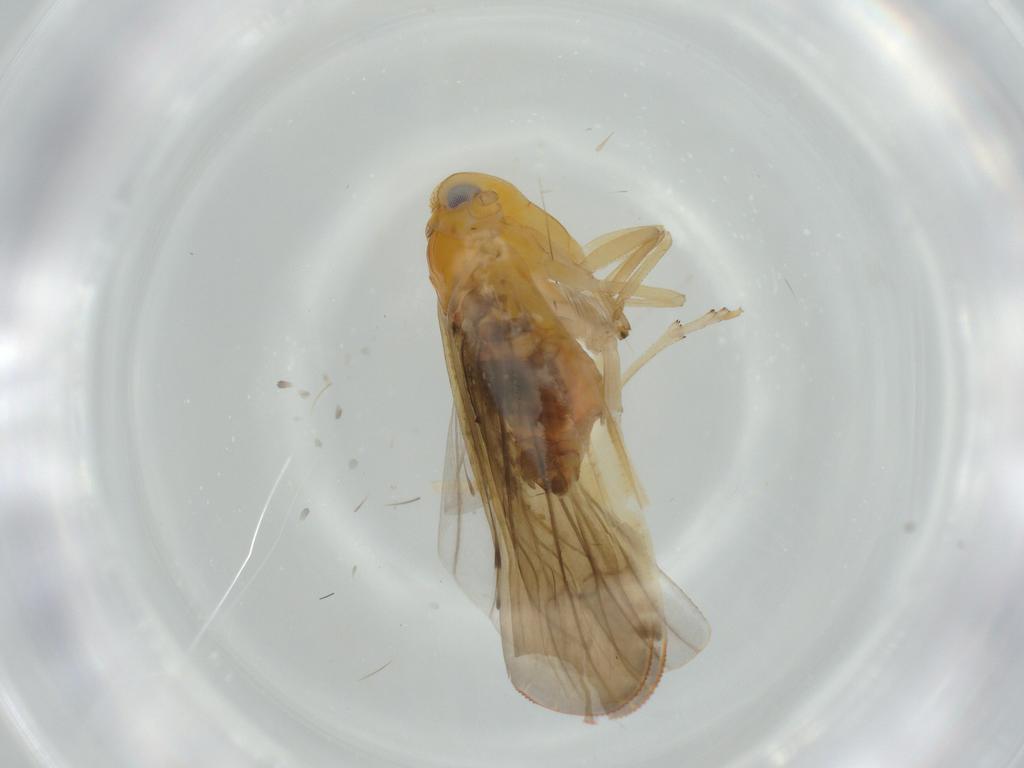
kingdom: Animalia
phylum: Arthropoda
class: Insecta
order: Hemiptera
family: Derbidae
